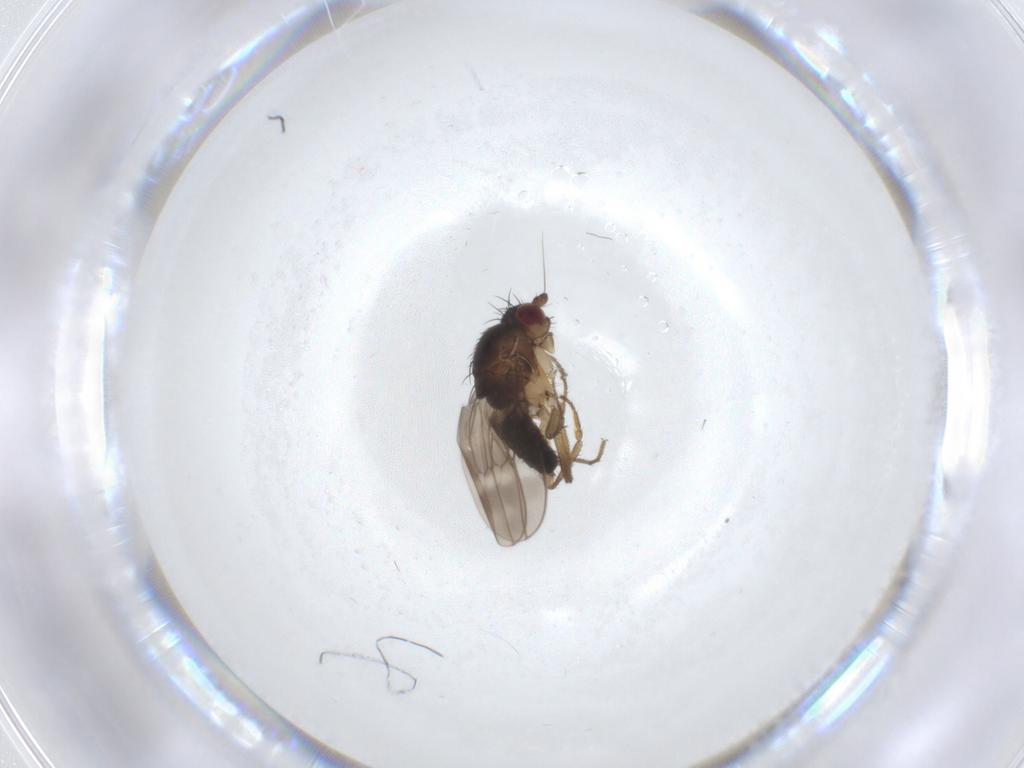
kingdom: Animalia
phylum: Arthropoda
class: Insecta
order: Diptera
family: Sphaeroceridae
